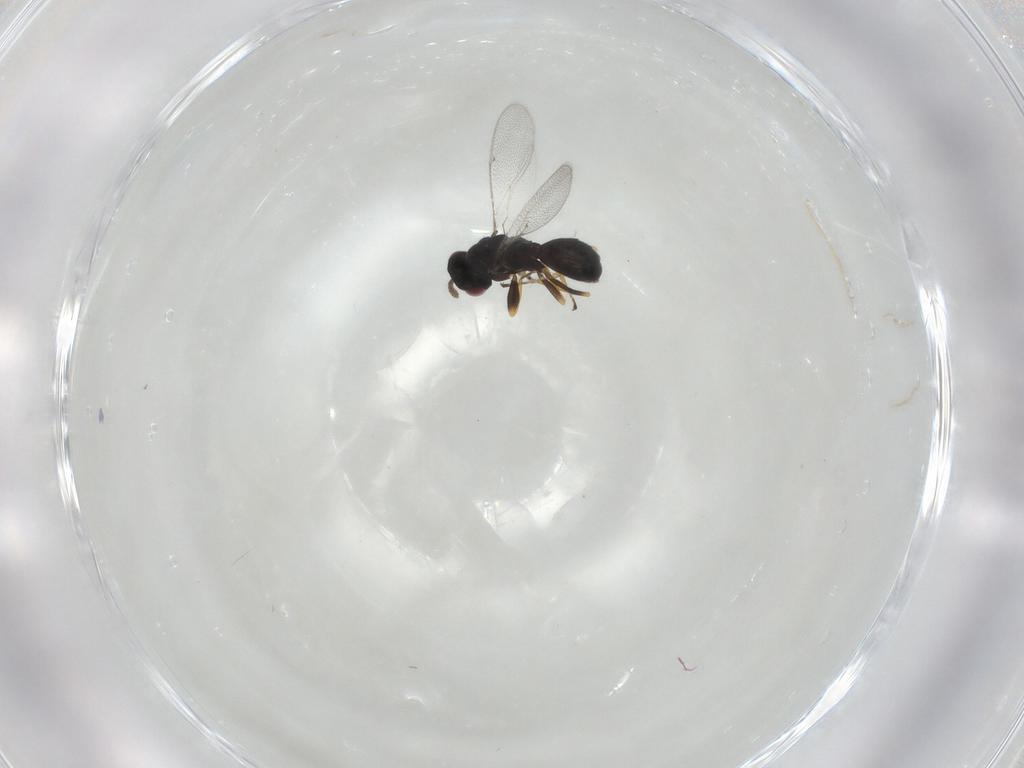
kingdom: Animalia
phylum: Arthropoda
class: Insecta
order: Hymenoptera
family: Eulophidae
